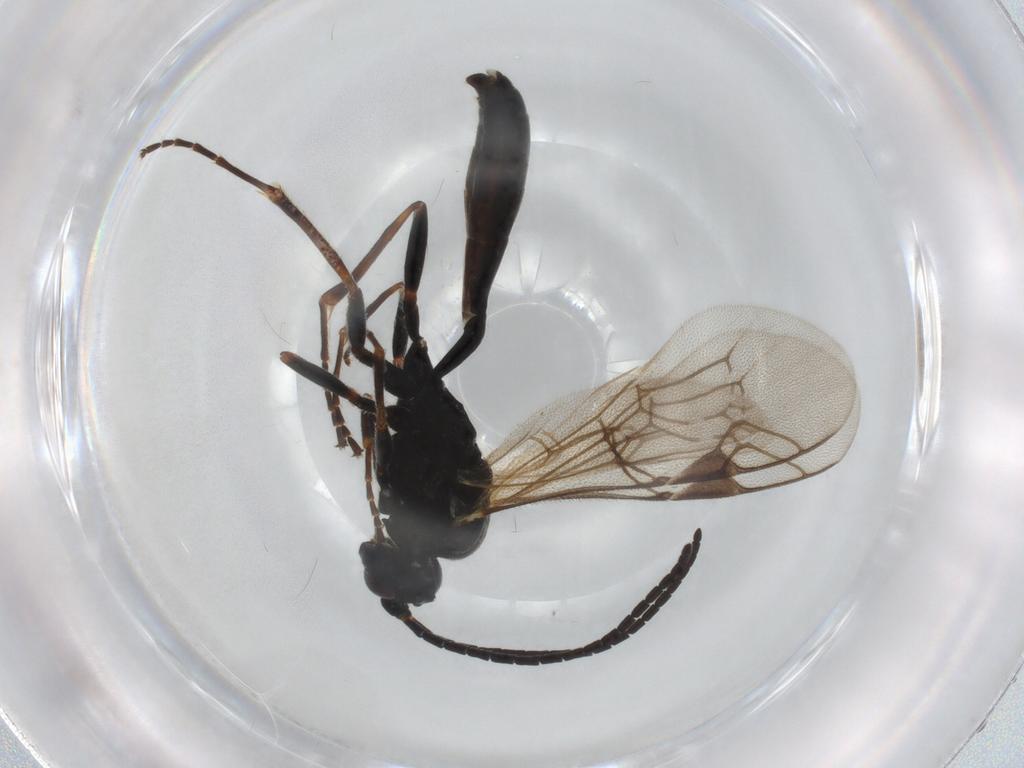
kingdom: Animalia
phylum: Arthropoda
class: Insecta
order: Hymenoptera
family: Ichneumonidae
